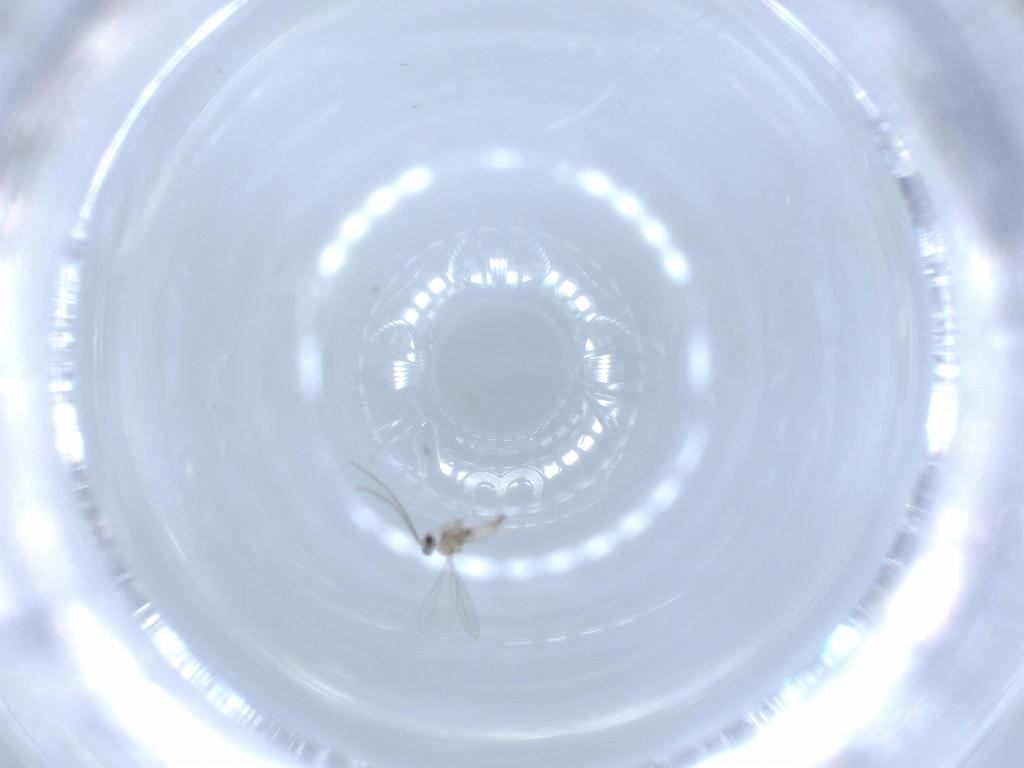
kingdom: Animalia
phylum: Arthropoda
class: Insecta
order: Diptera
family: Cecidomyiidae
